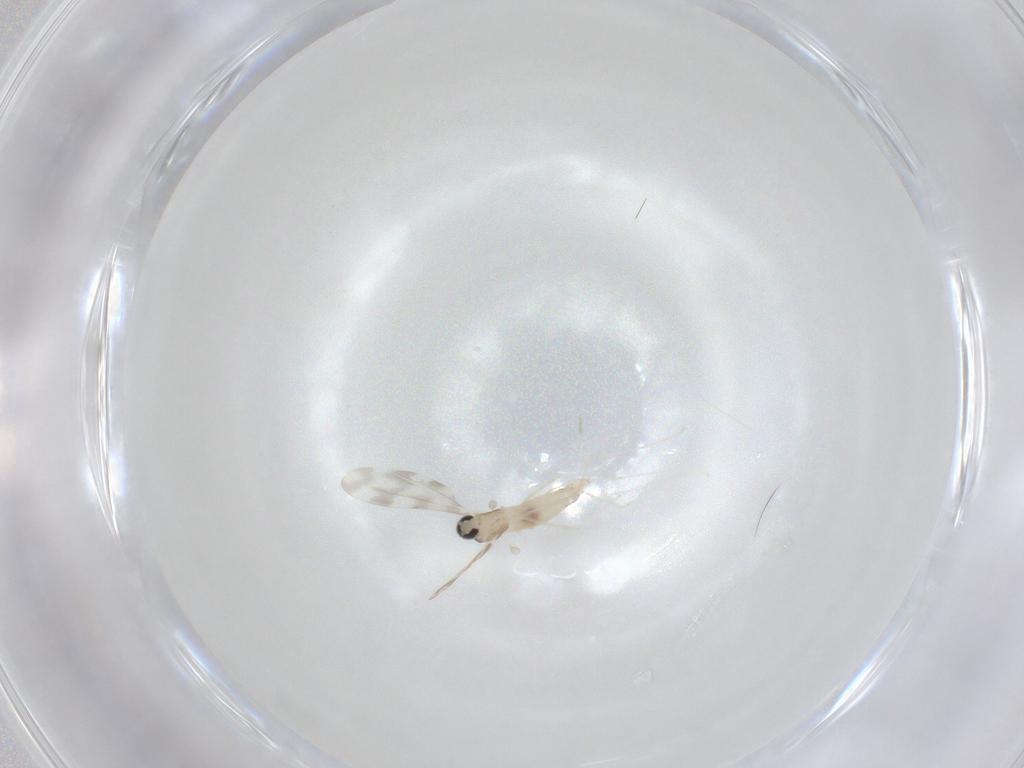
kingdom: Animalia
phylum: Arthropoda
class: Insecta
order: Diptera
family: Cecidomyiidae
